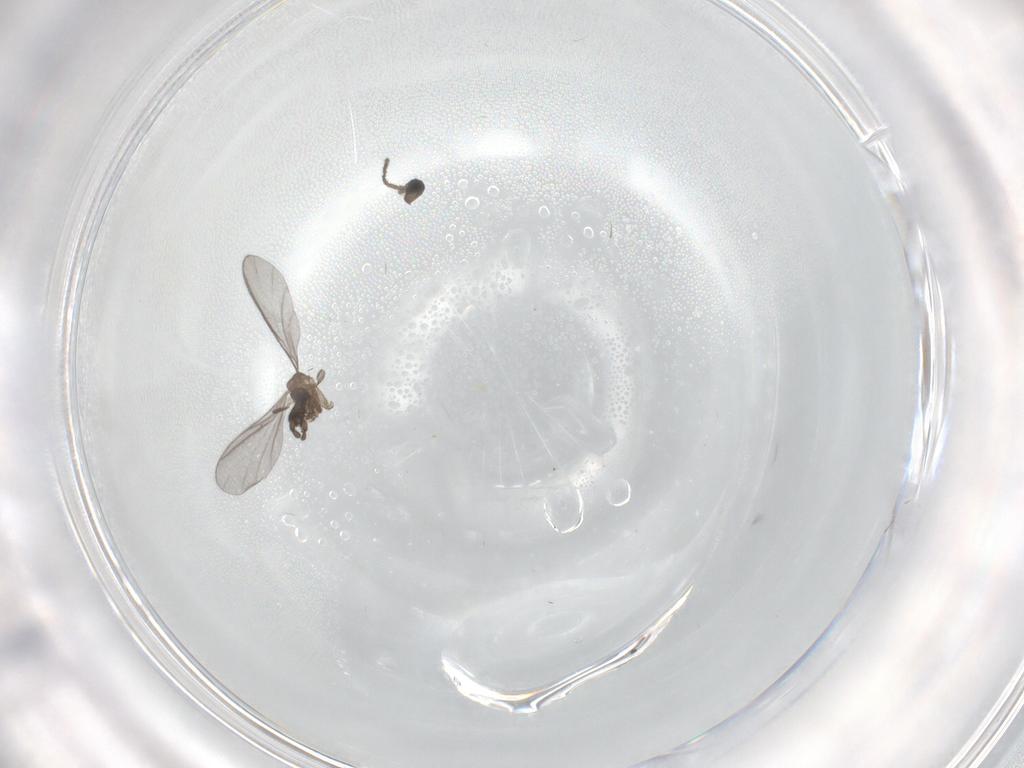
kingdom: Animalia
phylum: Arthropoda
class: Insecta
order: Diptera
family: Sciaridae
